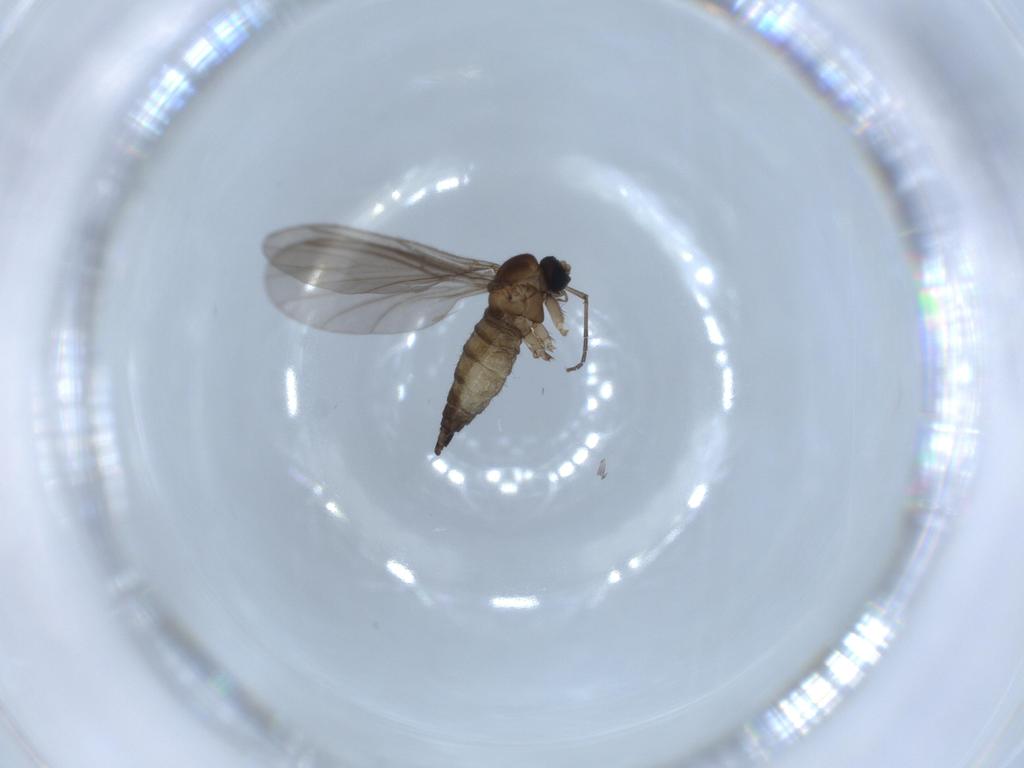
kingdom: Animalia
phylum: Arthropoda
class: Insecta
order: Diptera
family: Sciaridae
